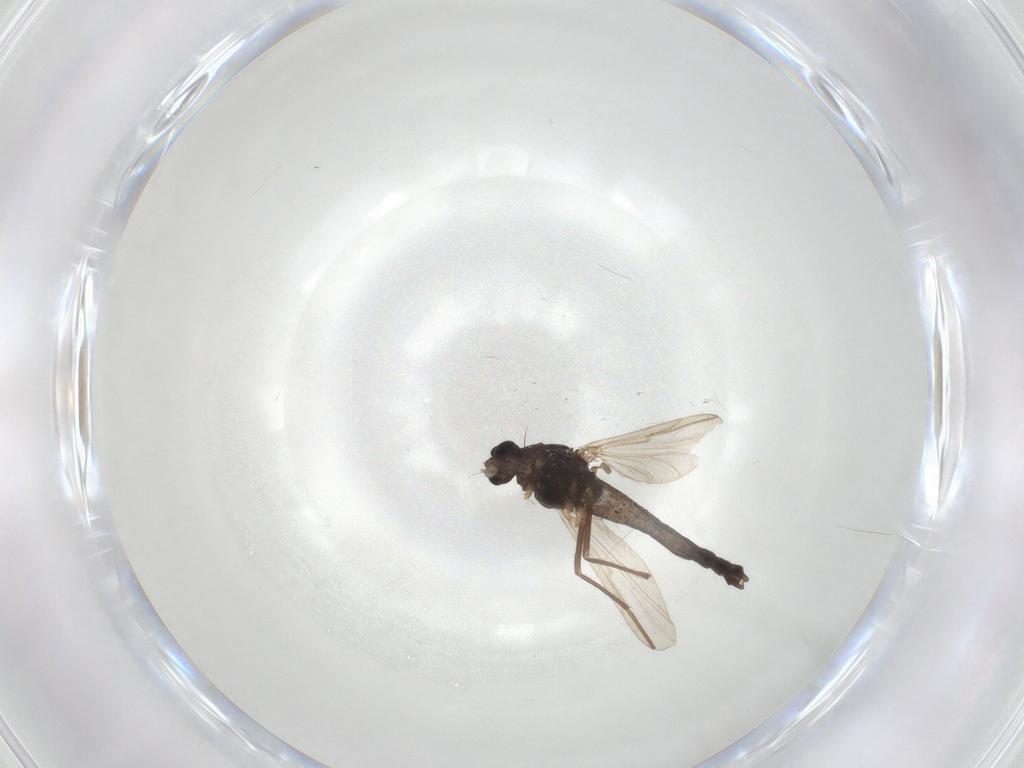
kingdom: Animalia
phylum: Arthropoda
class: Insecta
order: Diptera
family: Chironomidae
